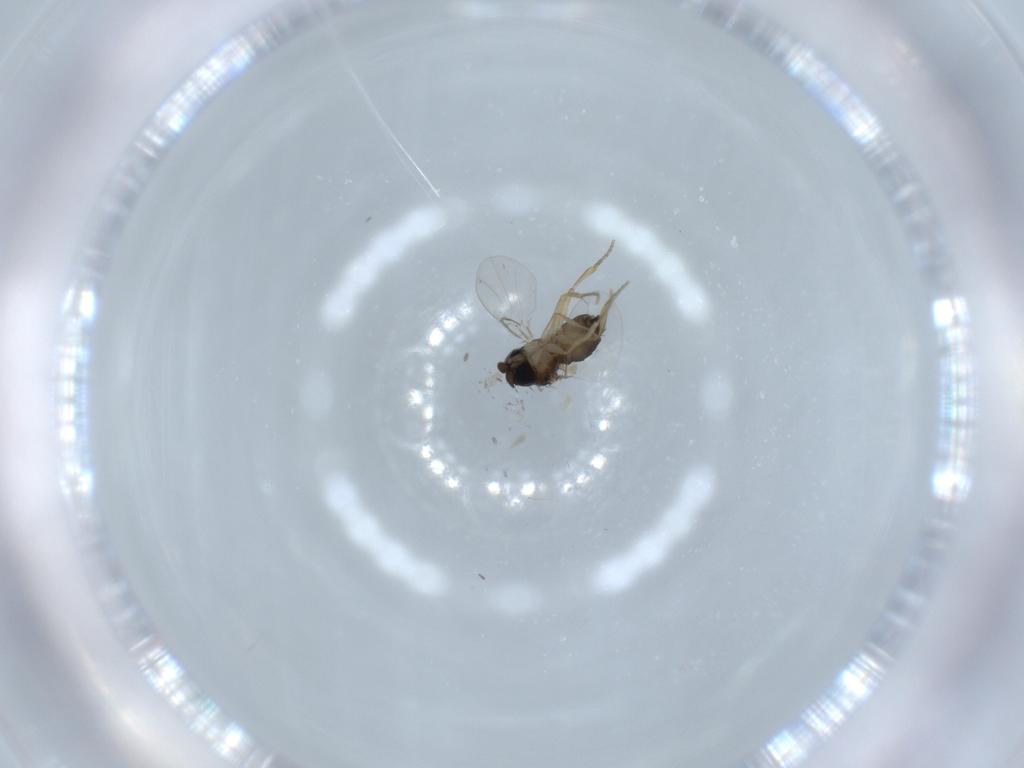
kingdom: Animalia
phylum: Arthropoda
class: Insecta
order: Diptera
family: Phoridae
